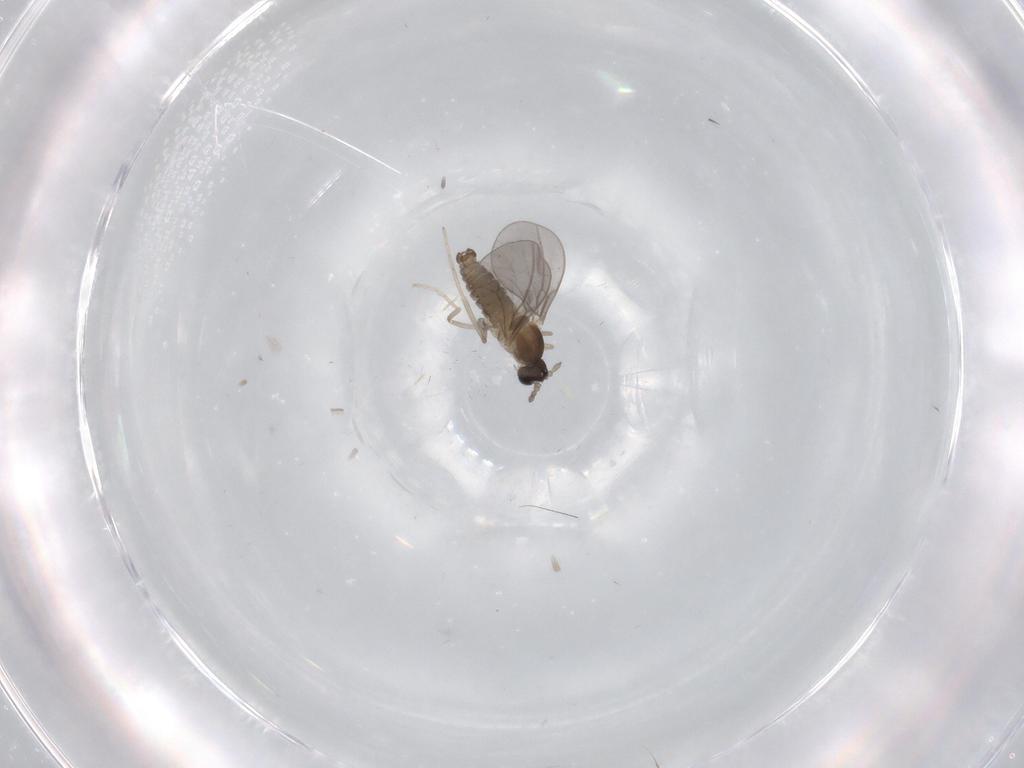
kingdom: Animalia
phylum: Arthropoda
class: Insecta
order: Diptera
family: Cecidomyiidae
